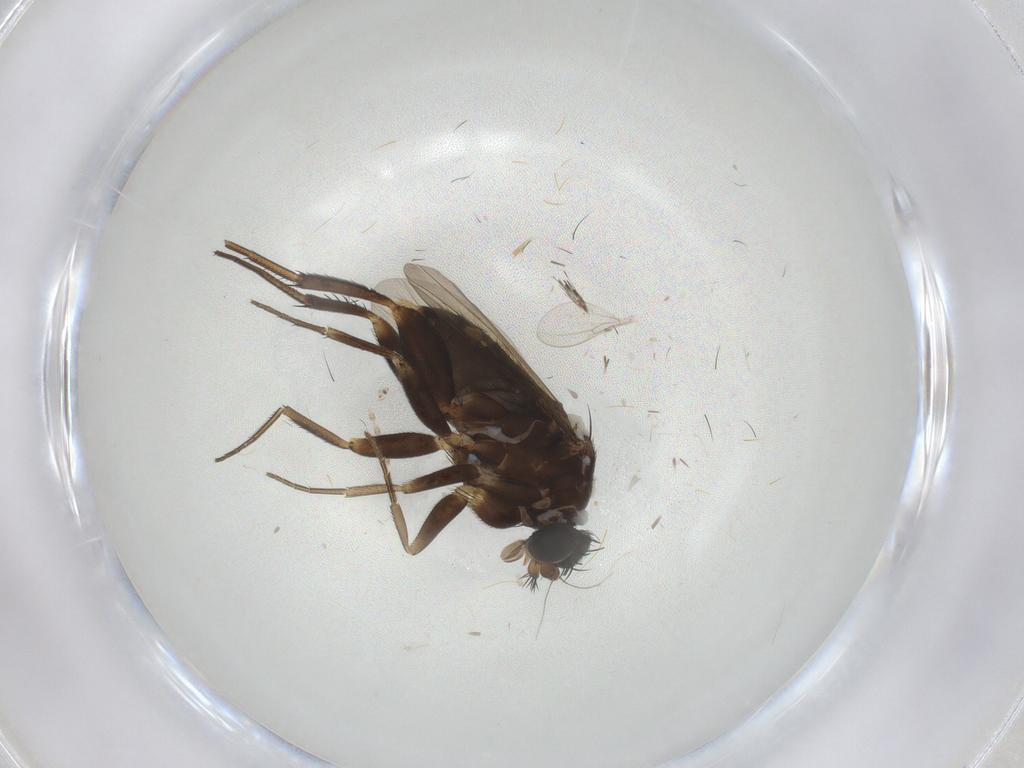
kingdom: Animalia
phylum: Arthropoda
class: Insecta
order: Diptera
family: Phoridae
